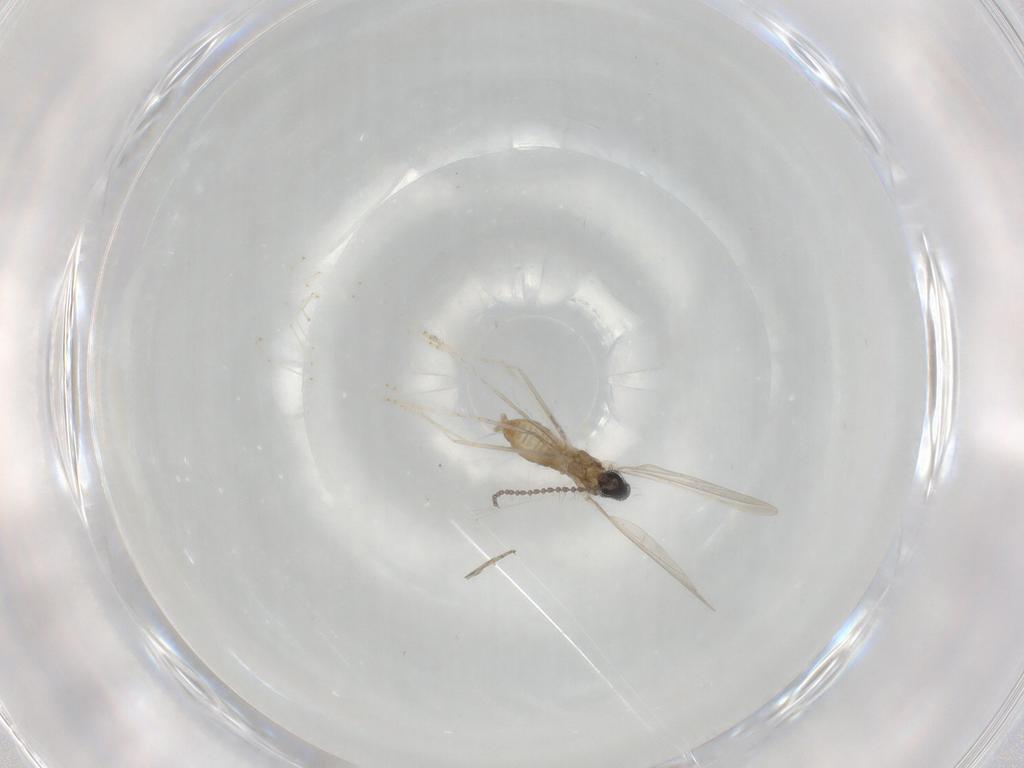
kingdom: Animalia
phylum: Arthropoda
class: Insecta
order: Diptera
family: Cecidomyiidae
